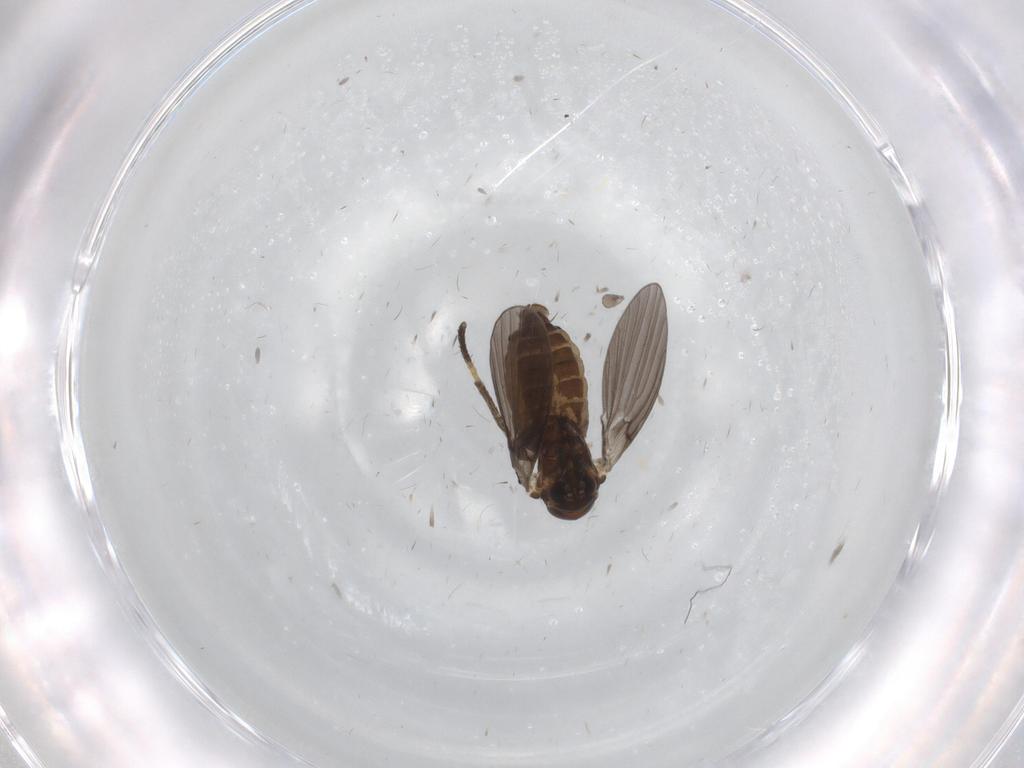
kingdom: Animalia
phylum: Arthropoda
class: Insecta
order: Diptera
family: Psychodidae
